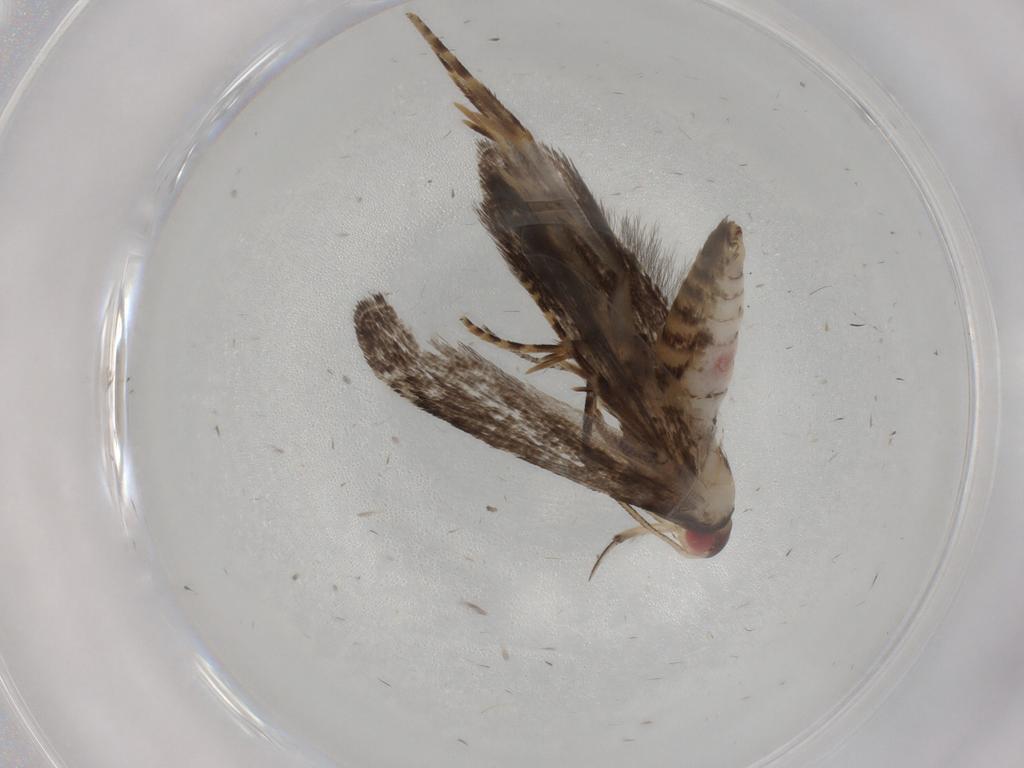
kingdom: Animalia
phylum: Arthropoda
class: Insecta
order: Lepidoptera
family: Gelechiidae
